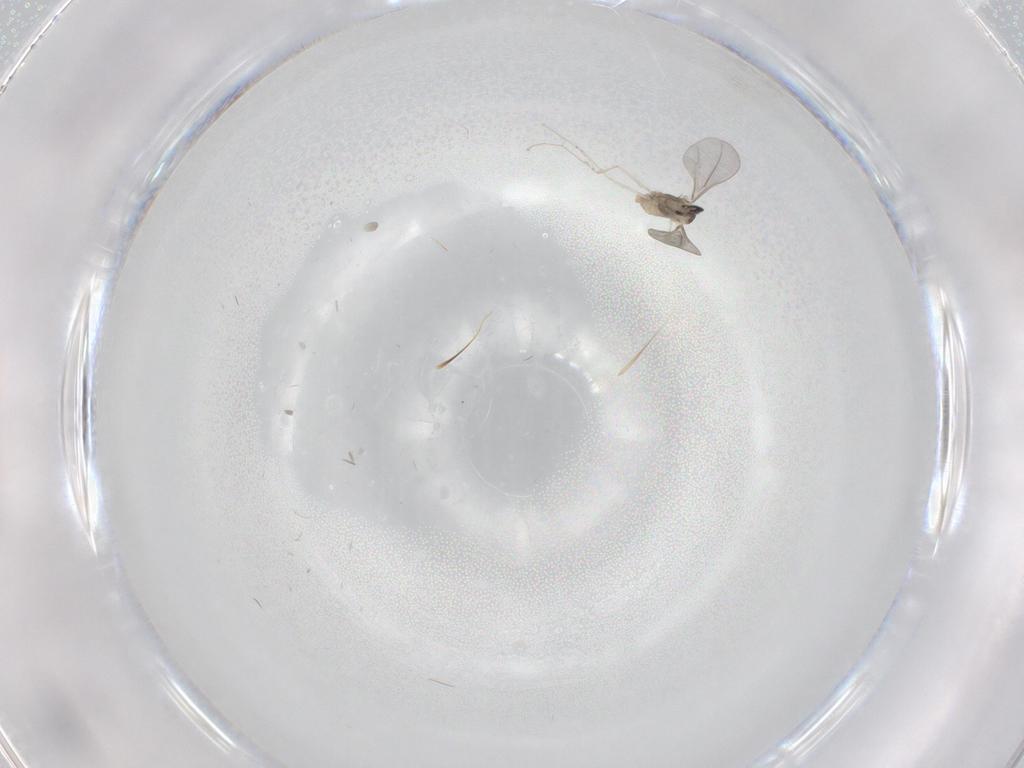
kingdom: Animalia
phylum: Arthropoda
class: Insecta
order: Diptera
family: Cecidomyiidae
